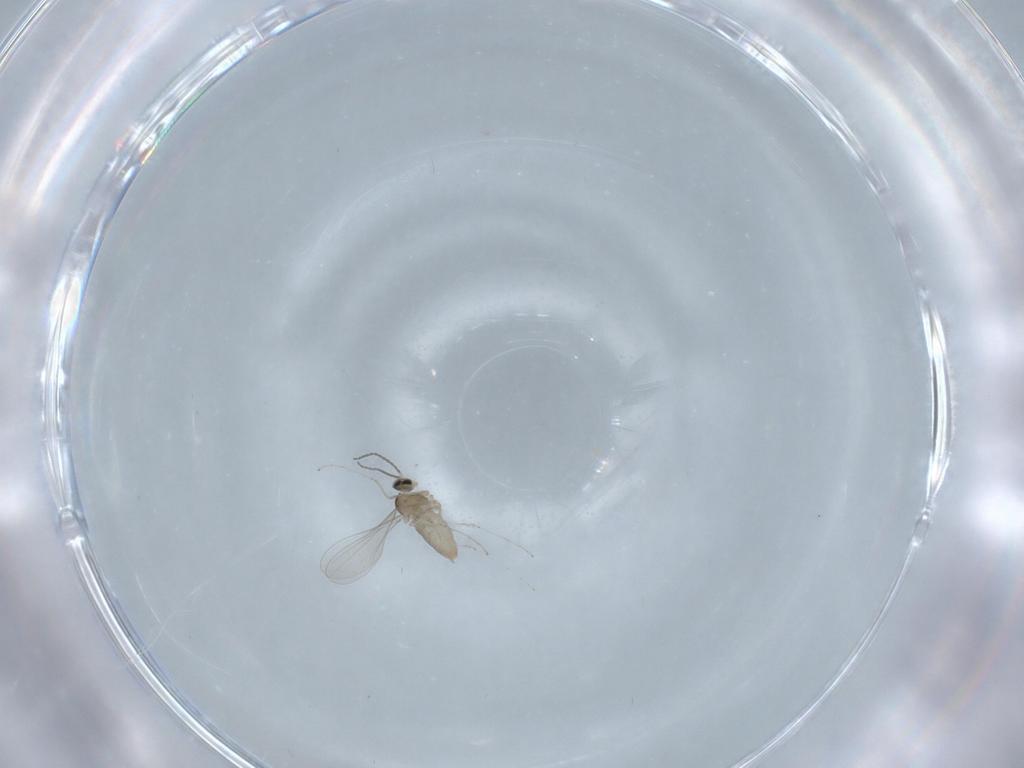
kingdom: Animalia
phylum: Arthropoda
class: Insecta
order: Diptera
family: Cecidomyiidae
